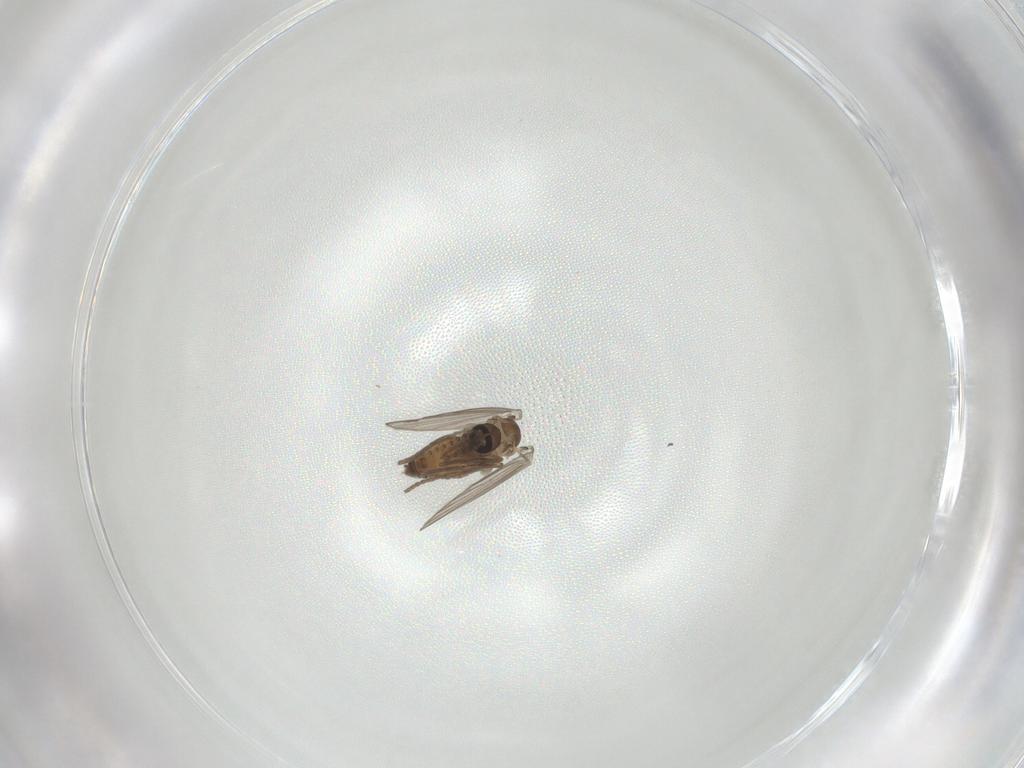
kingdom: Animalia
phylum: Arthropoda
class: Insecta
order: Diptera
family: Psychodidae
